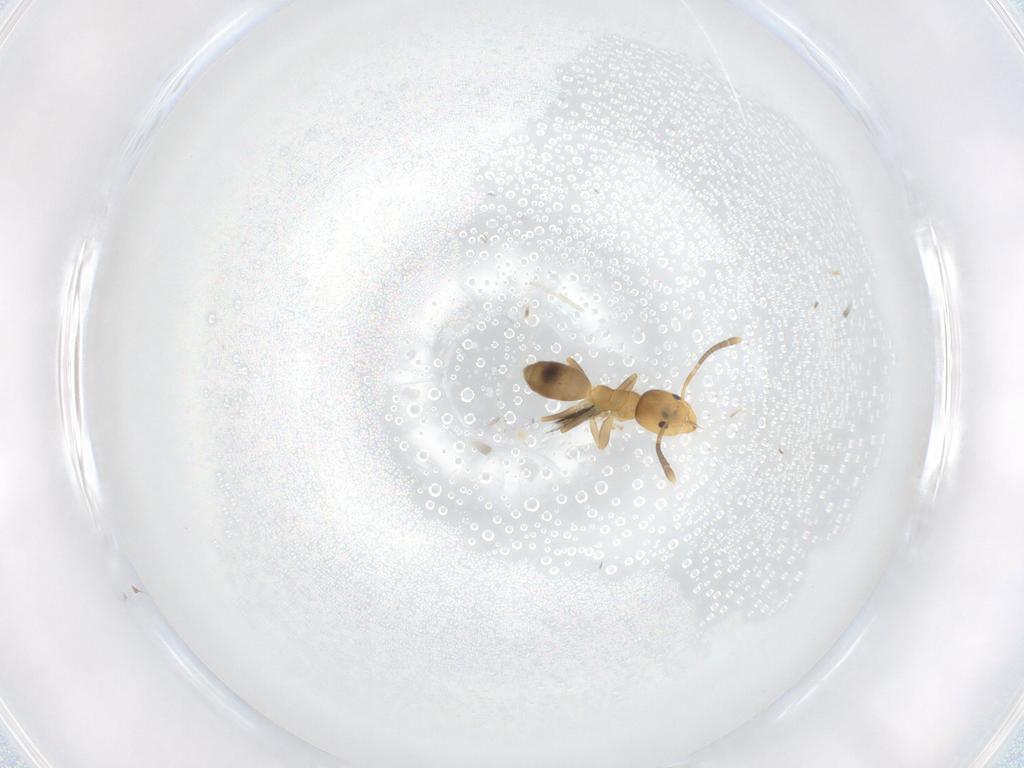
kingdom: Animalia
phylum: Arthropoda
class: Insecta
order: Hymenoptera
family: Formicidae
